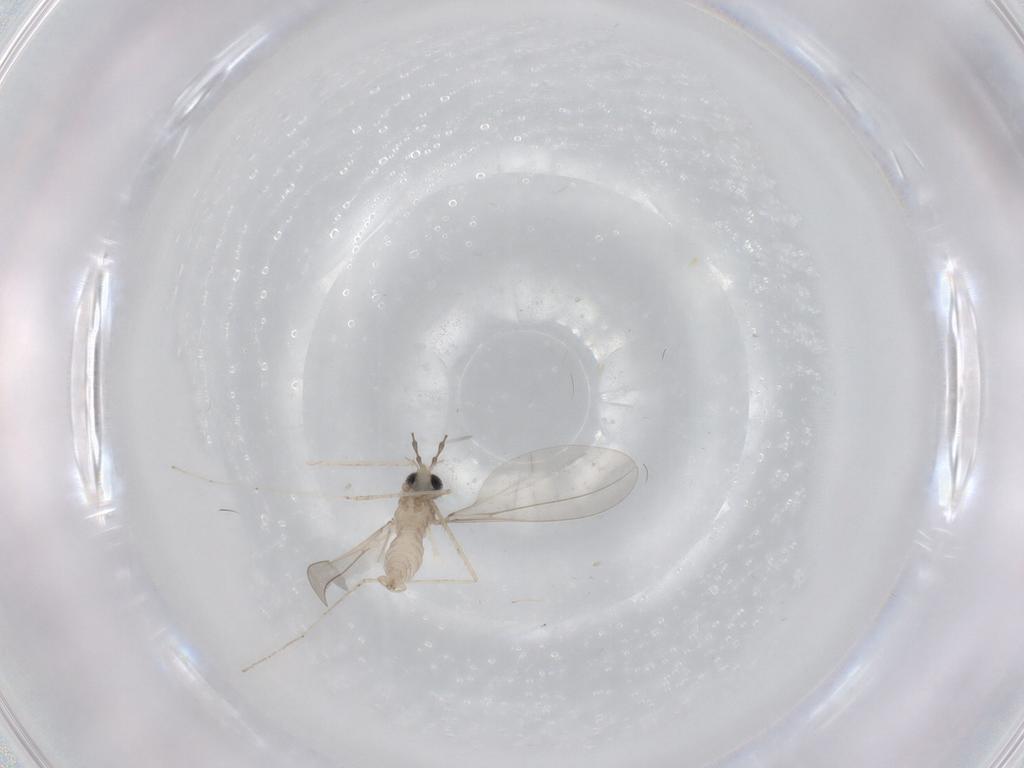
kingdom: Animalia
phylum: Arthropoda
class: Insecta
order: Diptera
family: Cecidomyiidae
